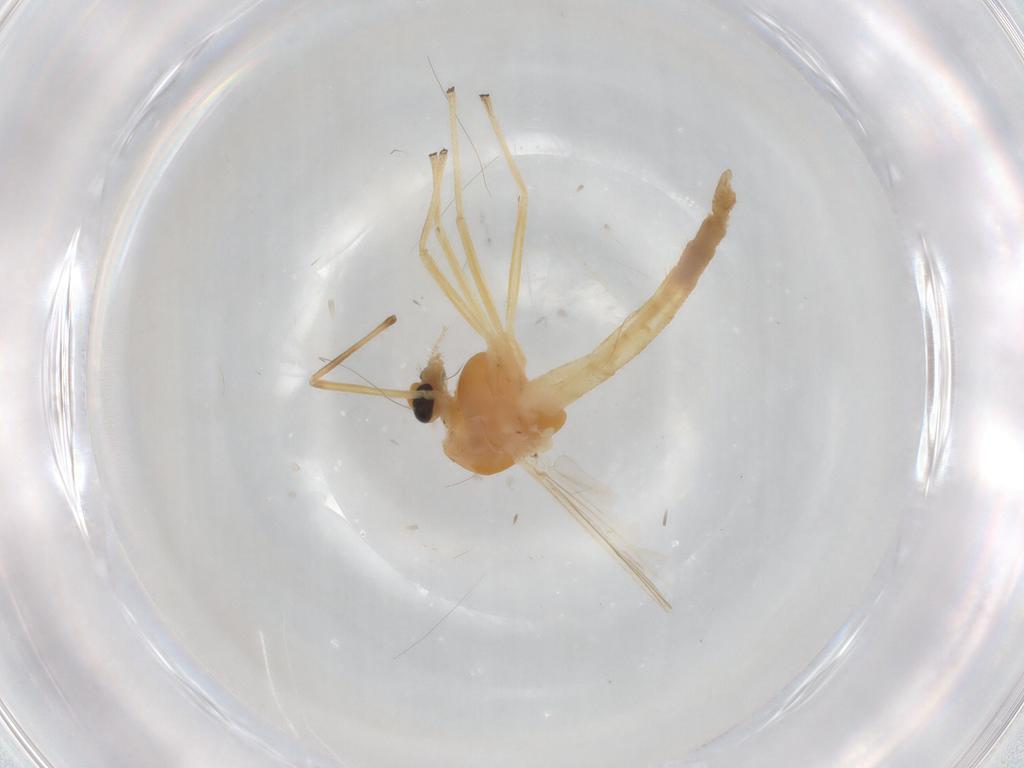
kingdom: Animalia
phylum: Arthropoda
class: Insecta
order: Diptera
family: Chironomidae
